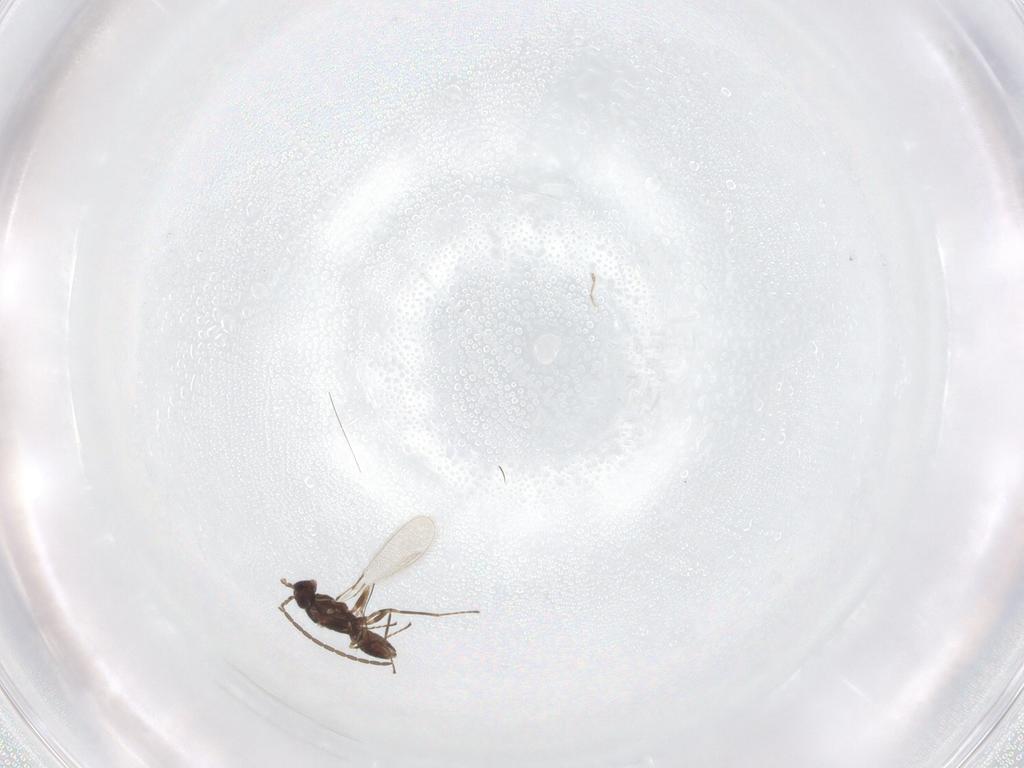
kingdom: Animalia
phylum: Arthropoda
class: Insecta
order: Hymenoptera
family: Mymaridae
